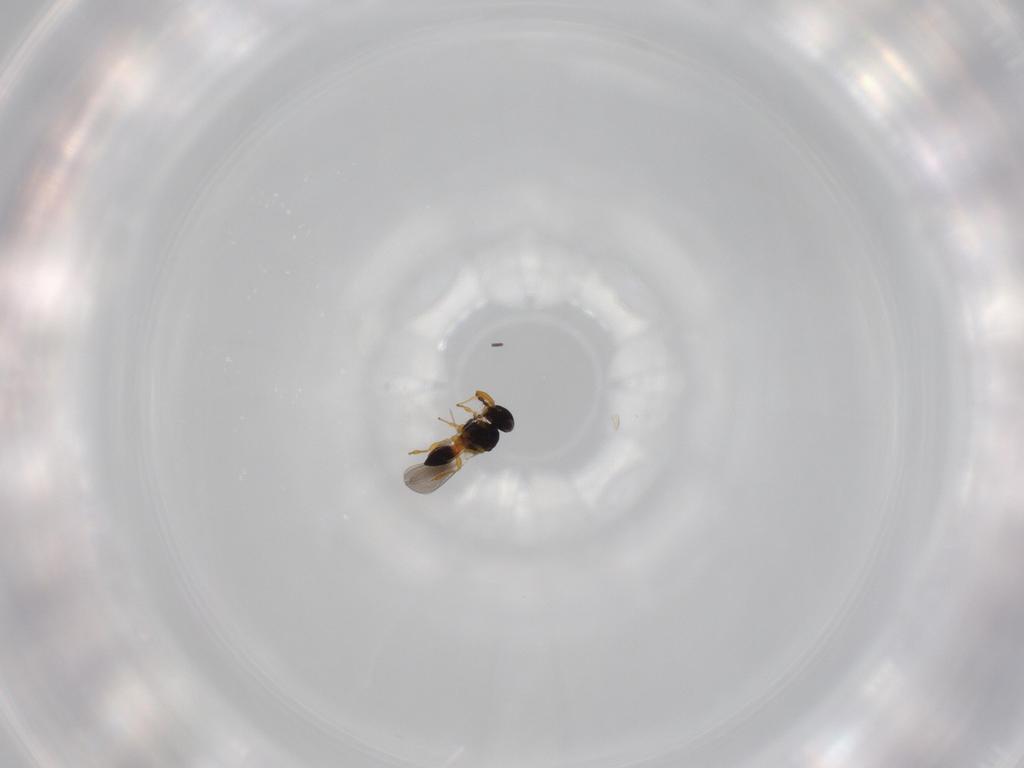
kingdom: Animalia
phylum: Arthropoda
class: Insecta
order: Hymenoptera
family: Platygastridae
